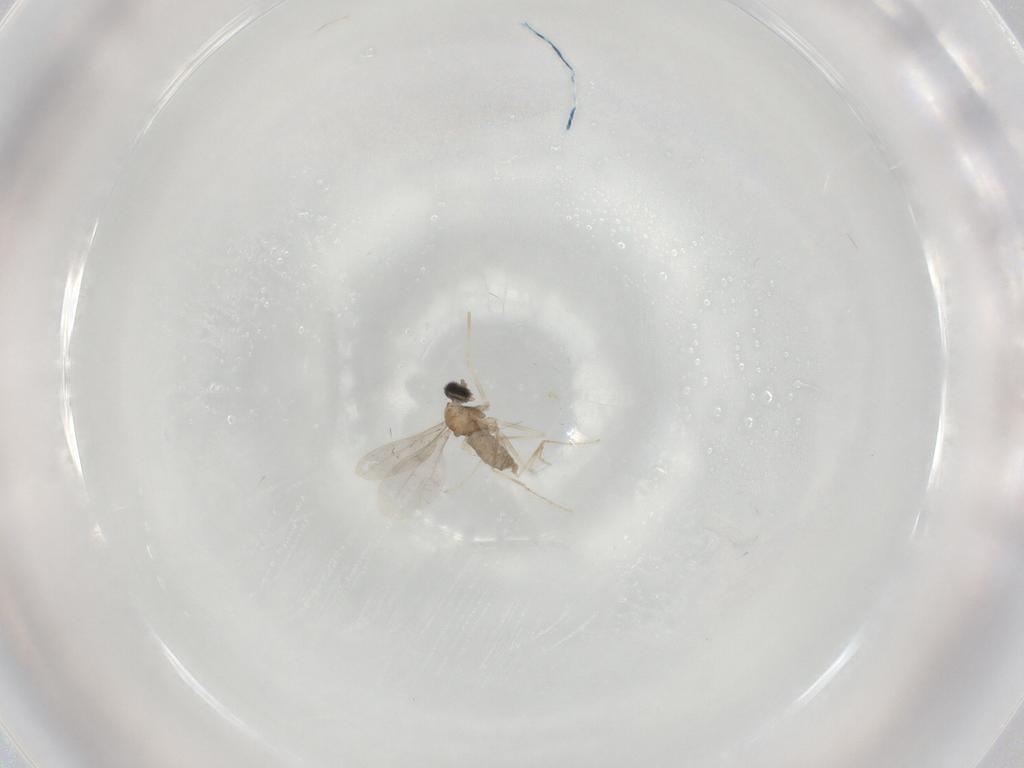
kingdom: Animalia
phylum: Arthropoda
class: Insecta
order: Diptera
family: Cecidomyiidae
